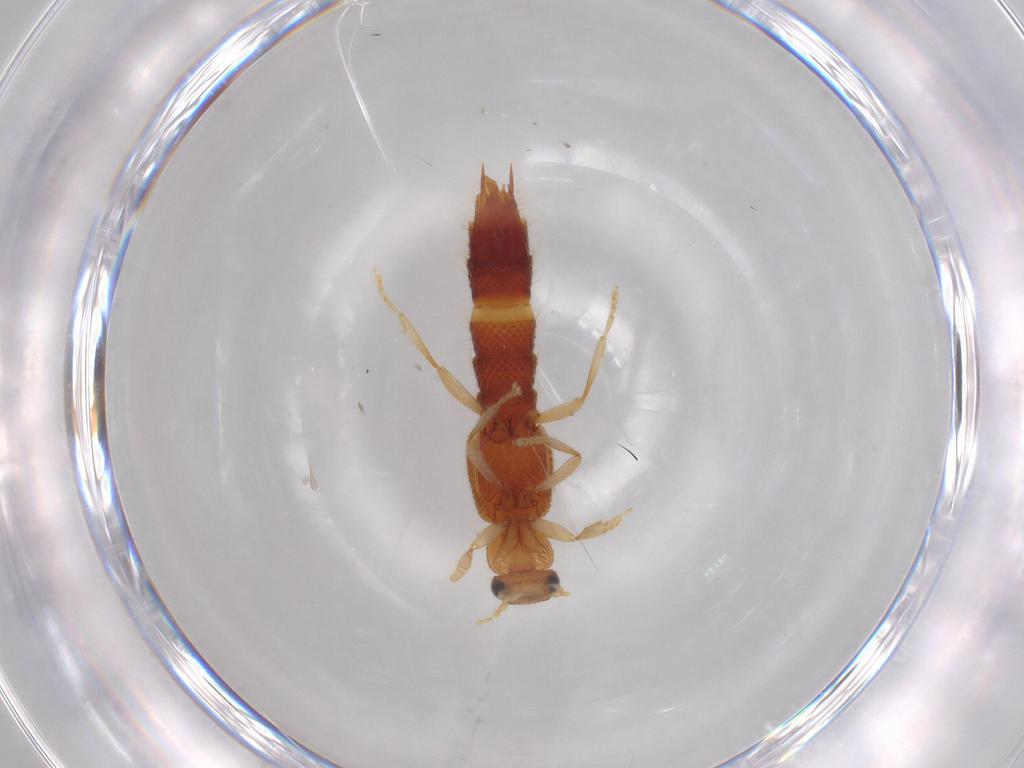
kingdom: Animalia
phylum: Arthropoda
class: Insecta
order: Coleoptera
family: Staphylinidae
